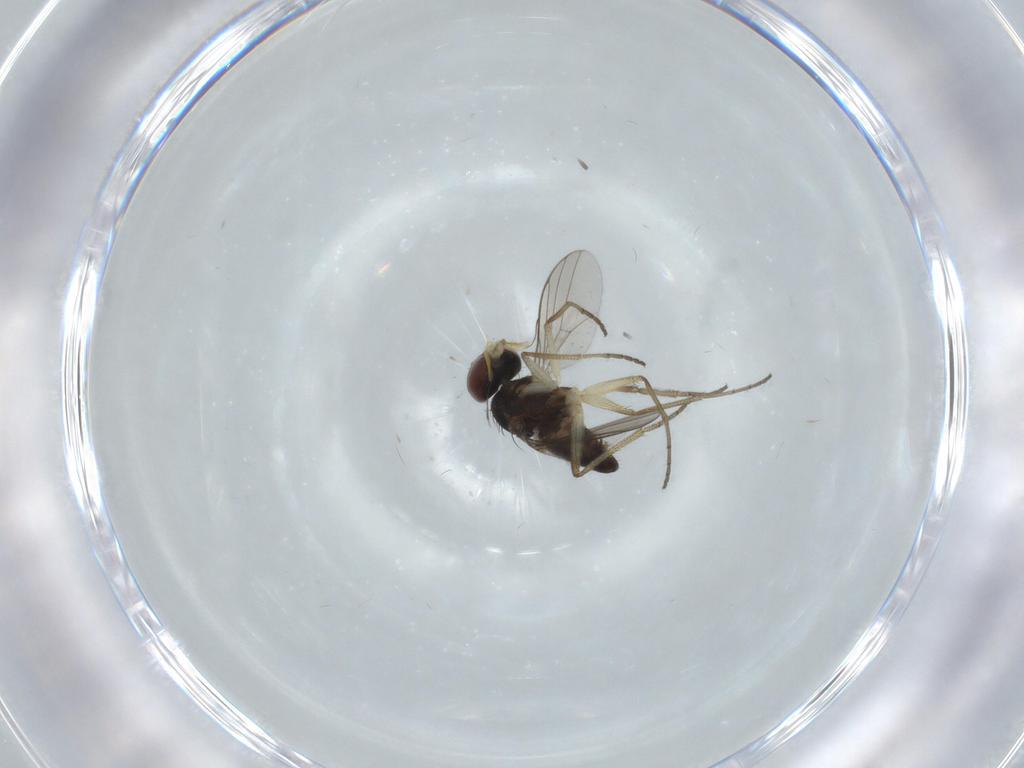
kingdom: Animalia
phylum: Arthropoda
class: Insecta
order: Diptera
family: Dolichopodidae
